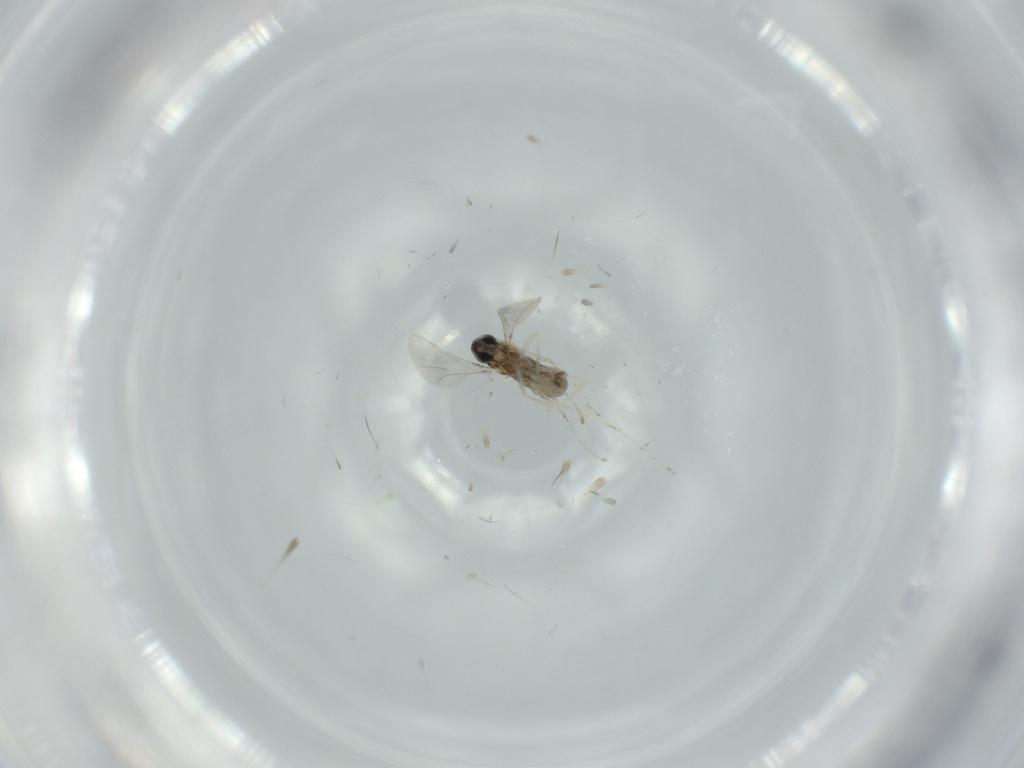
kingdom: Animalia
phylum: Arthropoda
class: Insecta
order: Diptera
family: Cecidomyiidae
